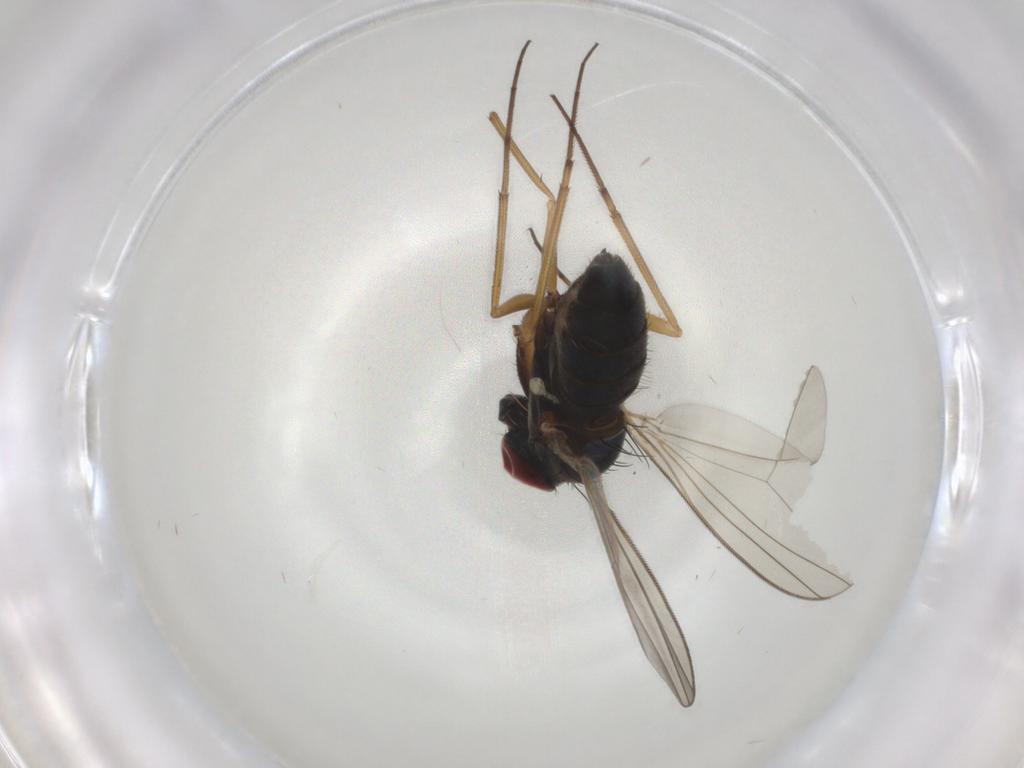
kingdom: Animalia
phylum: Arthropoda
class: Insecta
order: Diptera
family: Dolichopodidae
